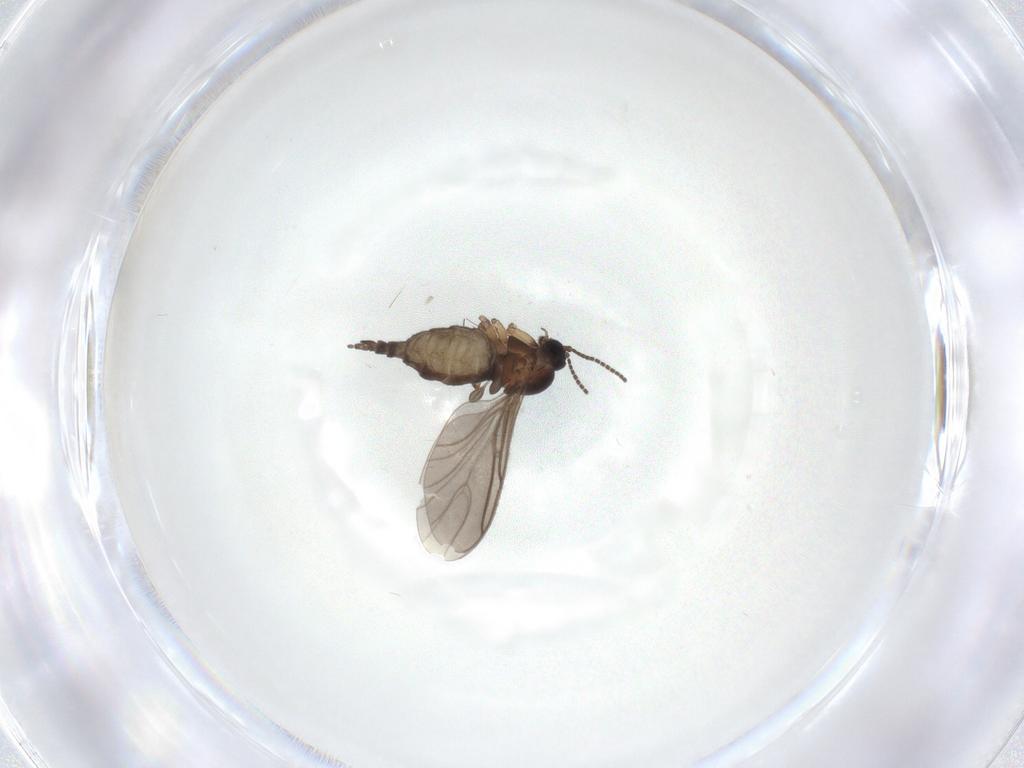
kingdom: Animalia
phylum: Arthropoda
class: Insecta
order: Diptera
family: Sciaridae
